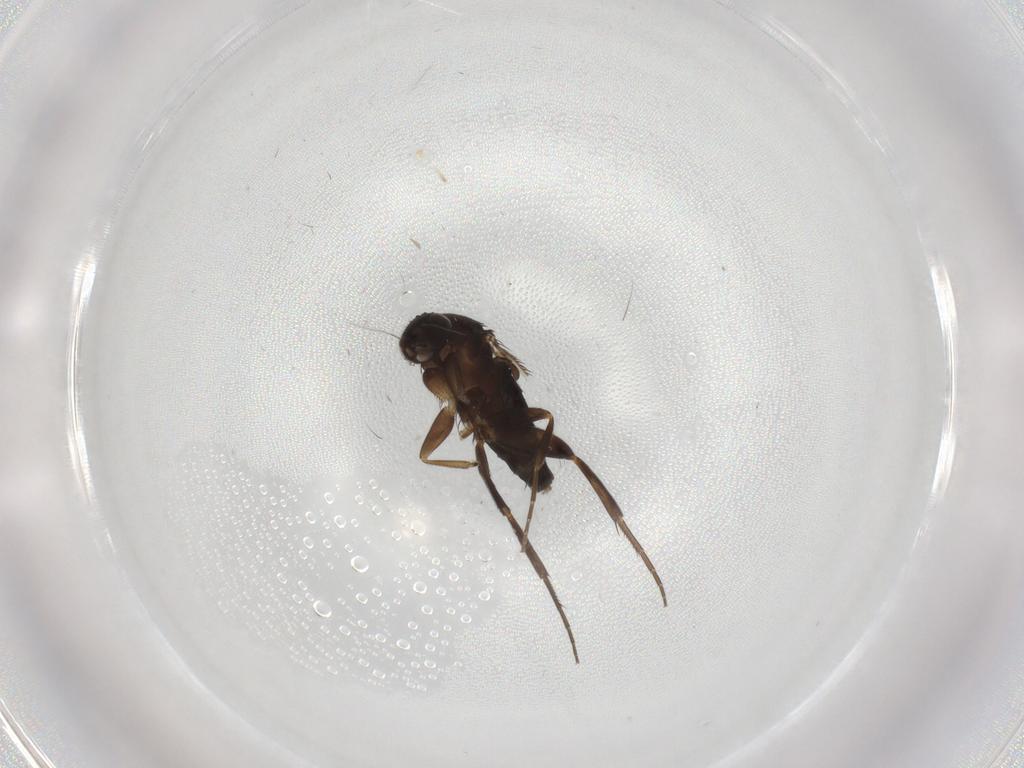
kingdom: Animalia
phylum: Arthropoda
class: Insecta
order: Diptera
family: Phoridae
